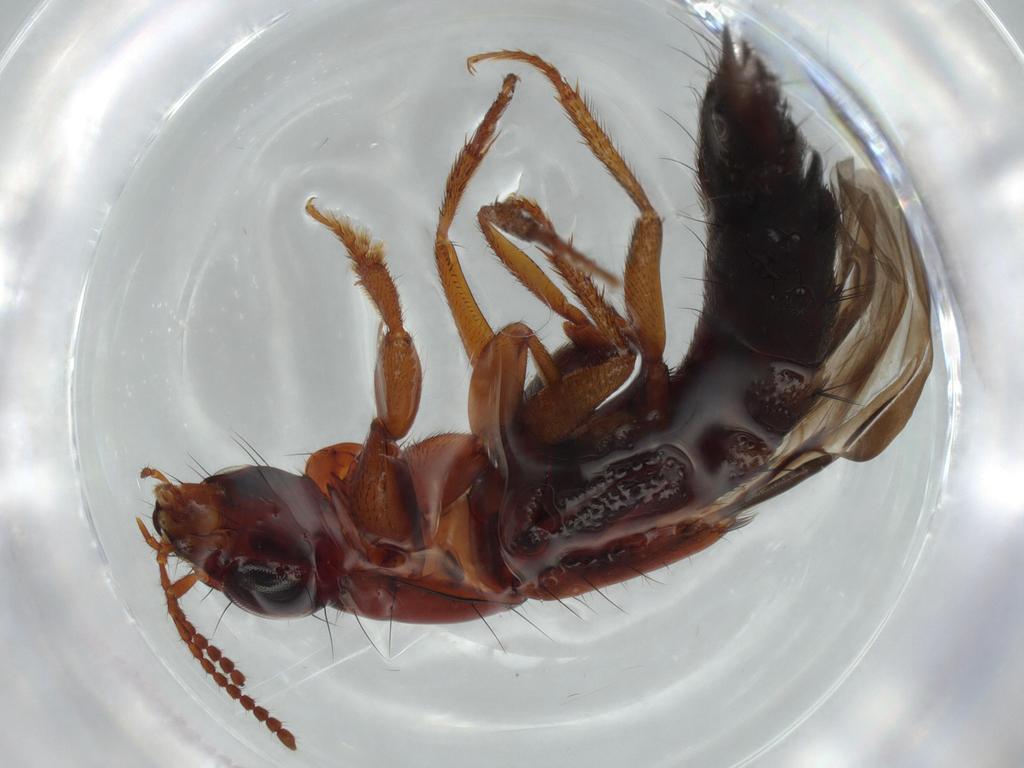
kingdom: Animalia
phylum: Arthropoda
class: Insecta
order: Coleoptera
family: Staphylinidae
